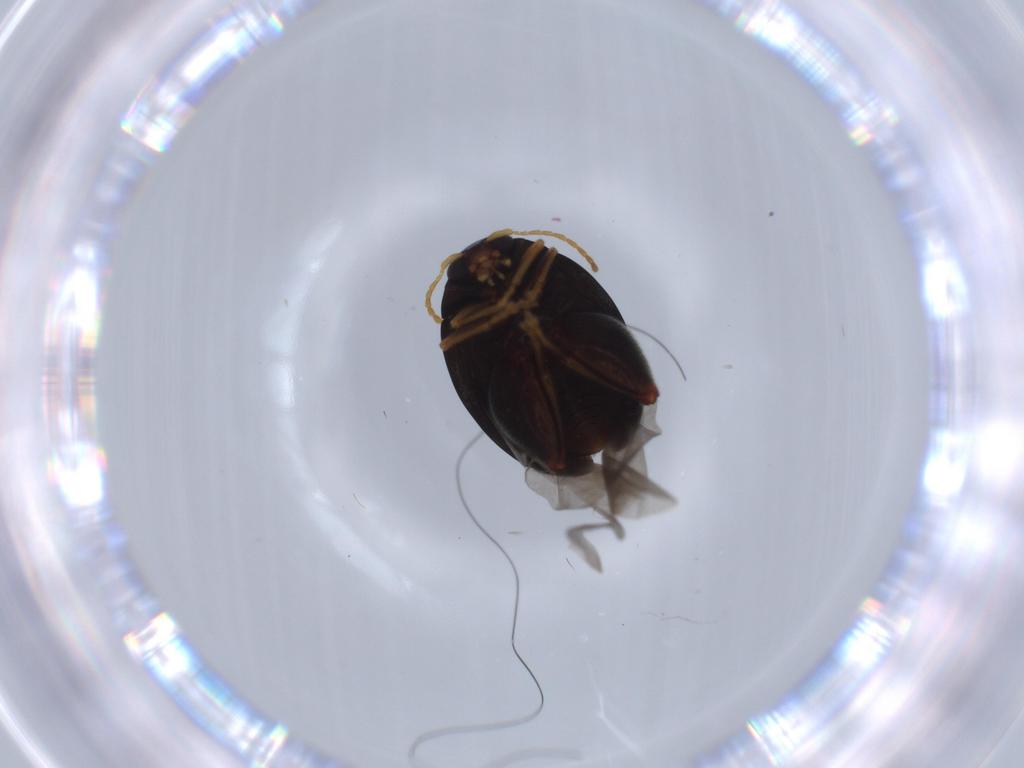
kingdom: Animalia
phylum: Arthropoda
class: Insecta
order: Coleoptera
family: Chrysomelidae
